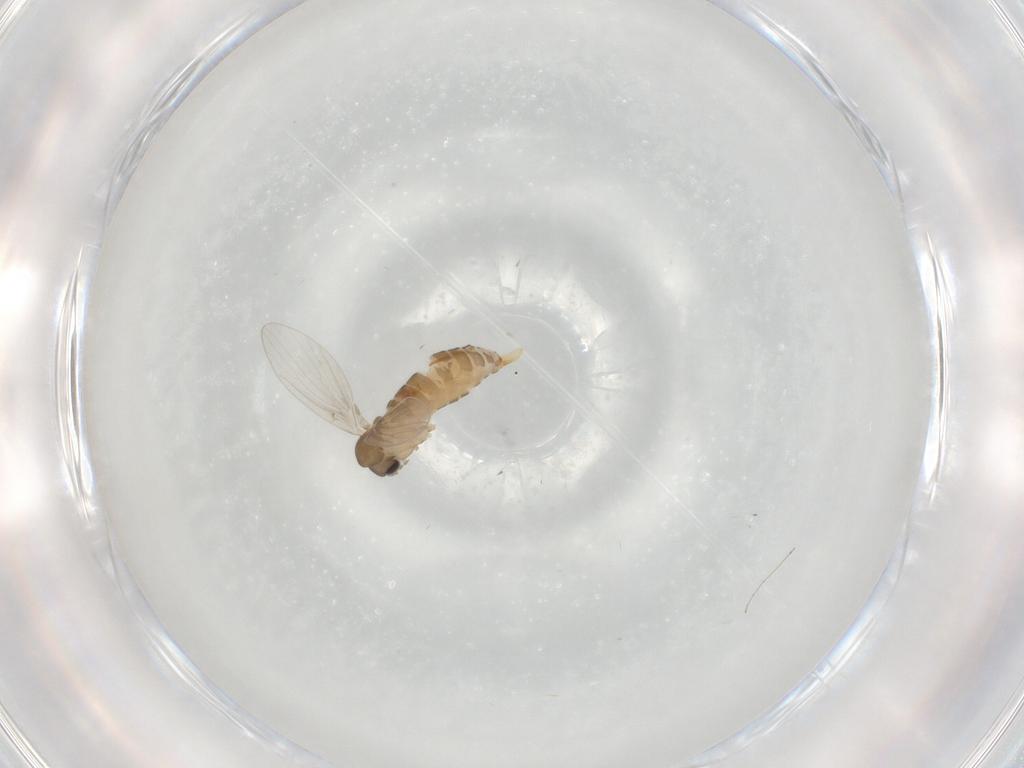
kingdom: Animalia
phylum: Arthropoda
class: Insecta
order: Diptera
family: Psychodidae
